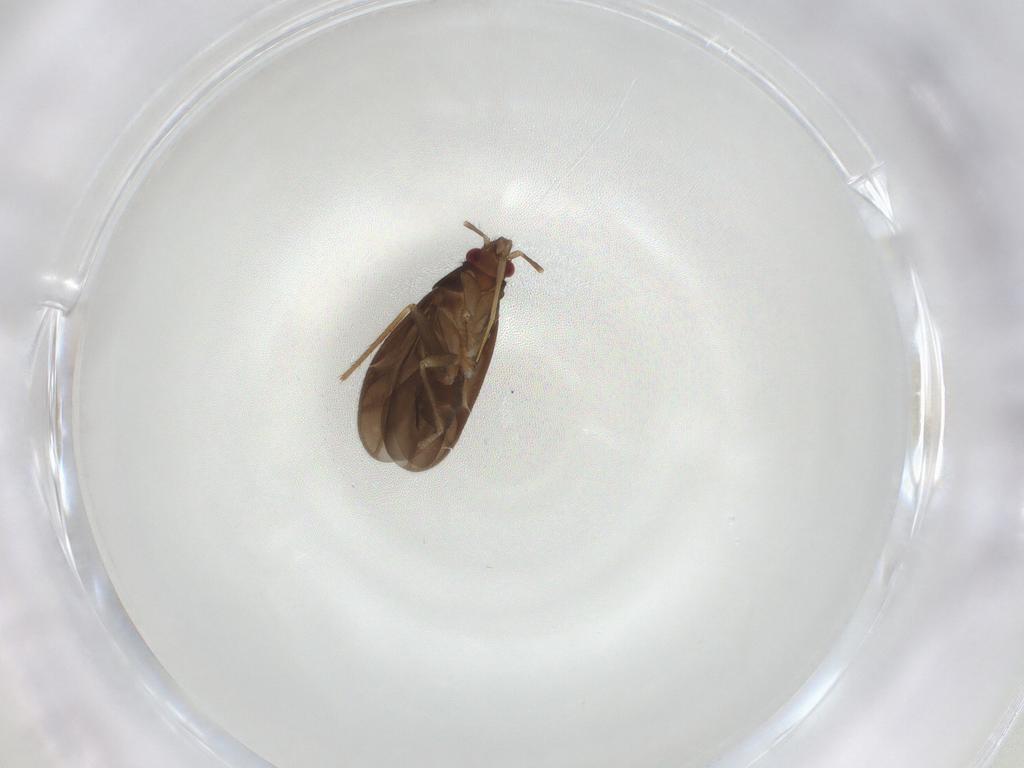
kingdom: Animalia
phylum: Arthropoda
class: Insecta
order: Hemiptera
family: Ceratocombidae
